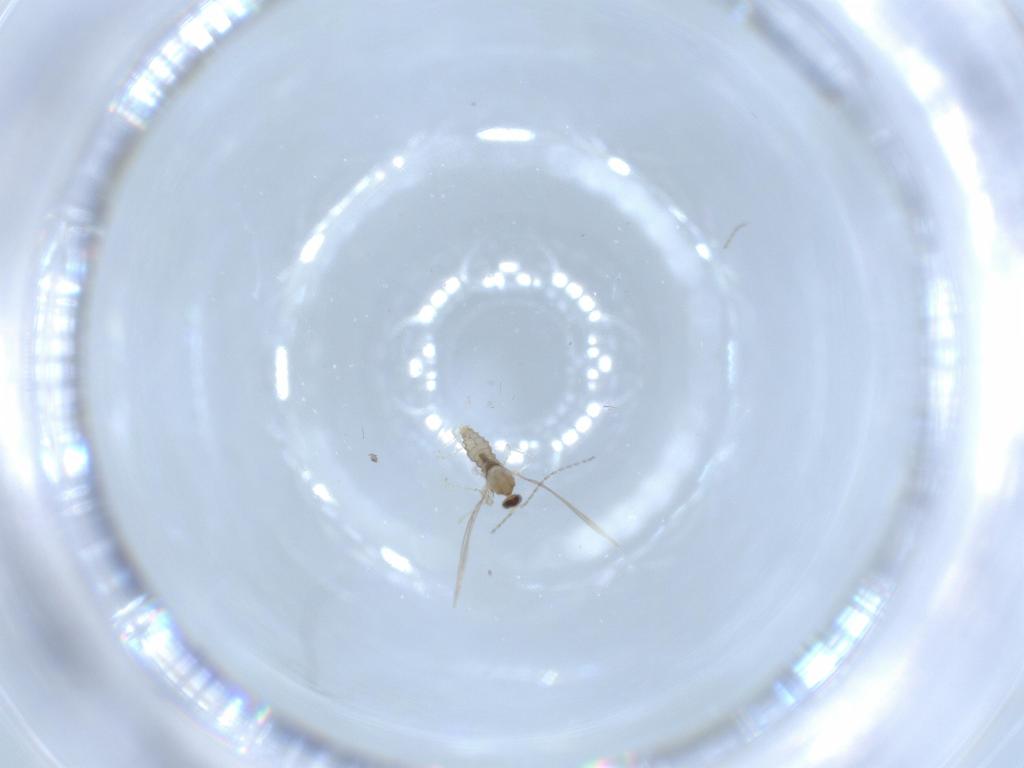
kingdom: Animalia
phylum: Arthropoda
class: Insecta
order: Diptera
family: Cecidomyiidae
